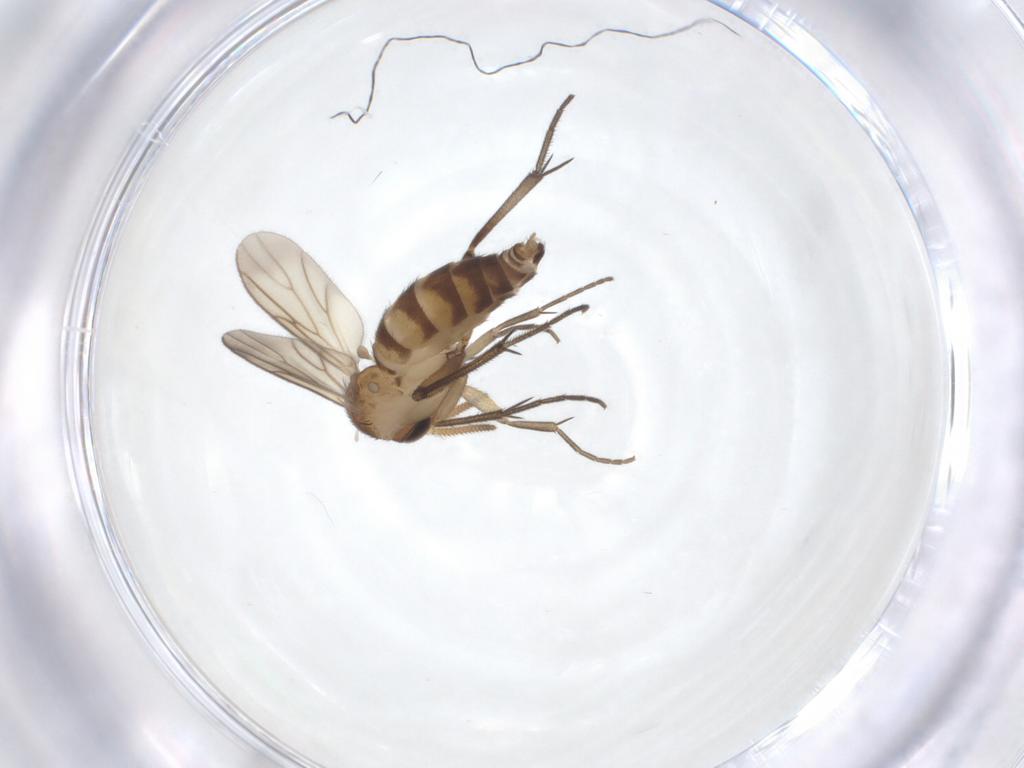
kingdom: Animalia
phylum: Arthropoda
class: Insecta
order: Diptera
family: Mycetophilidae
